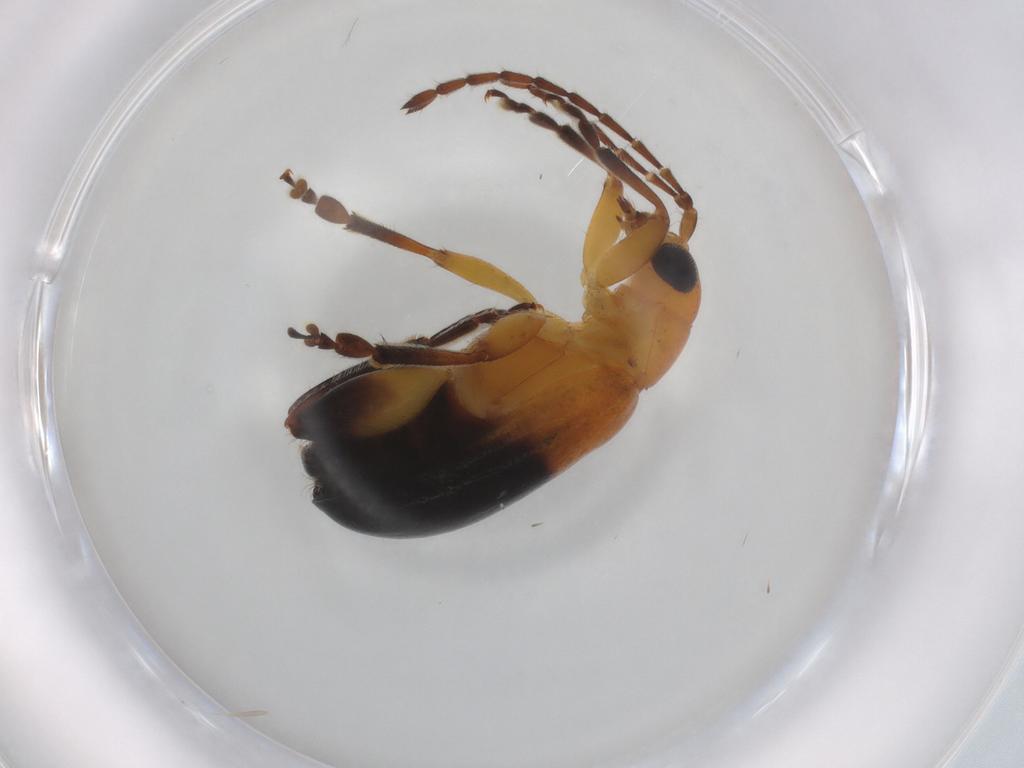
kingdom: Animalia
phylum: Arthropoda
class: Insecta
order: Coleoptera
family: Chrysomelidae
